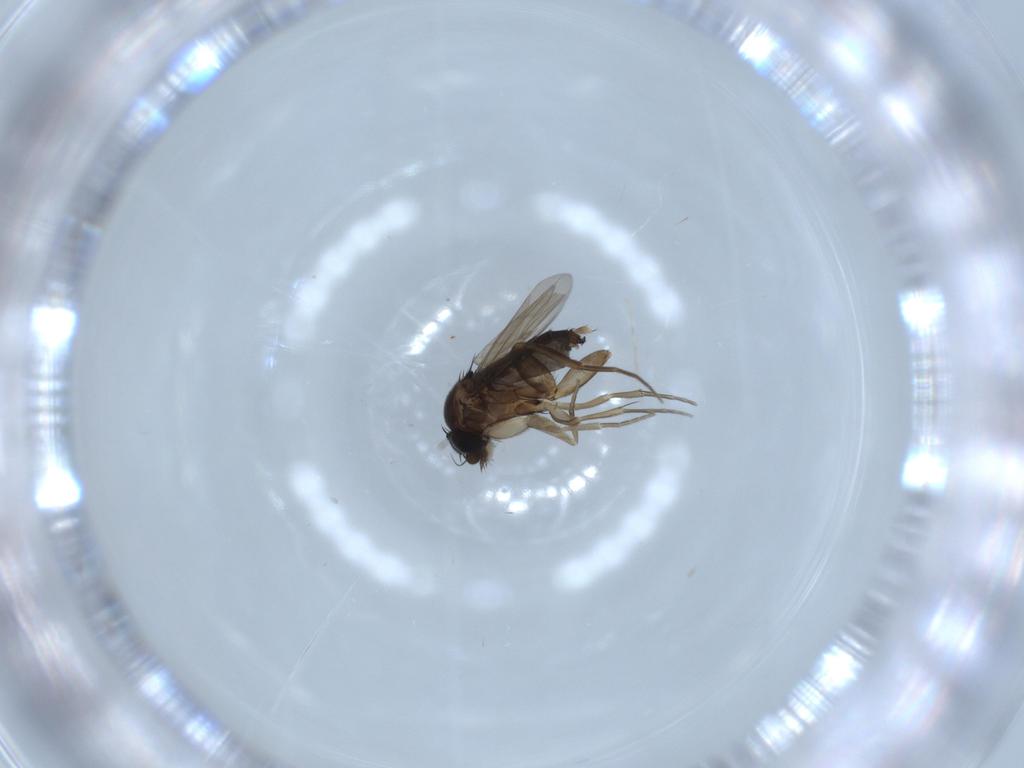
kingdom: Animalia
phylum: Arthropoda
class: Insecta
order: Diptera
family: Phoridae
